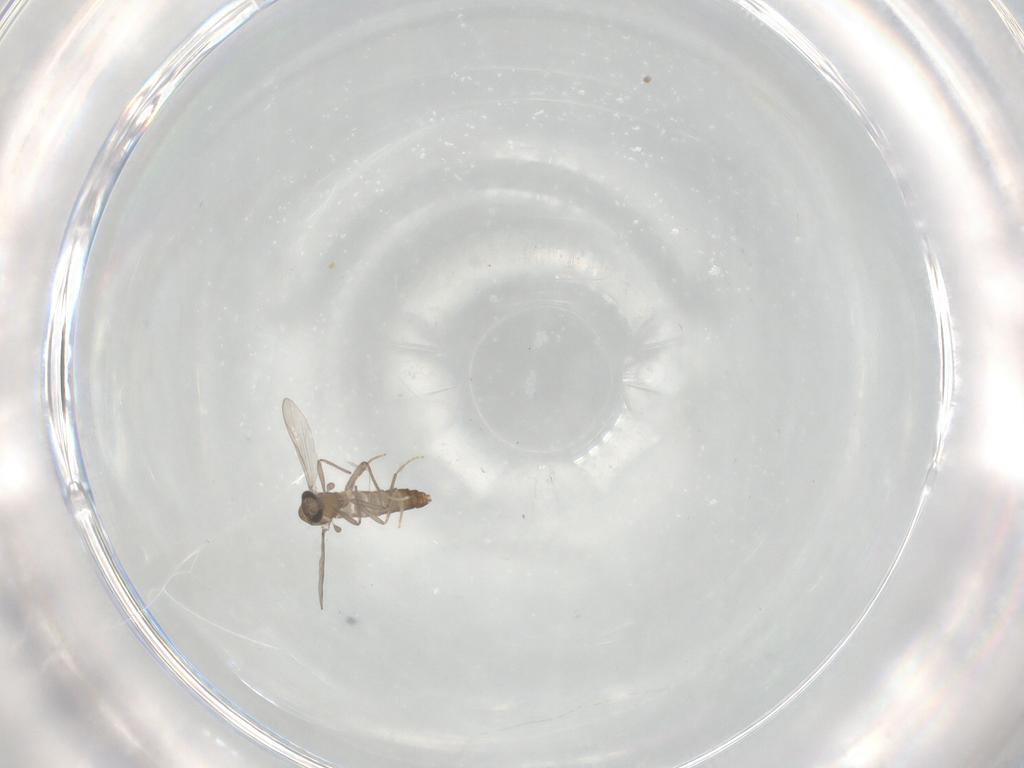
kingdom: Animalia
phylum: Arthropoda
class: Insecta
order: Diptera
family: Chironomidae
